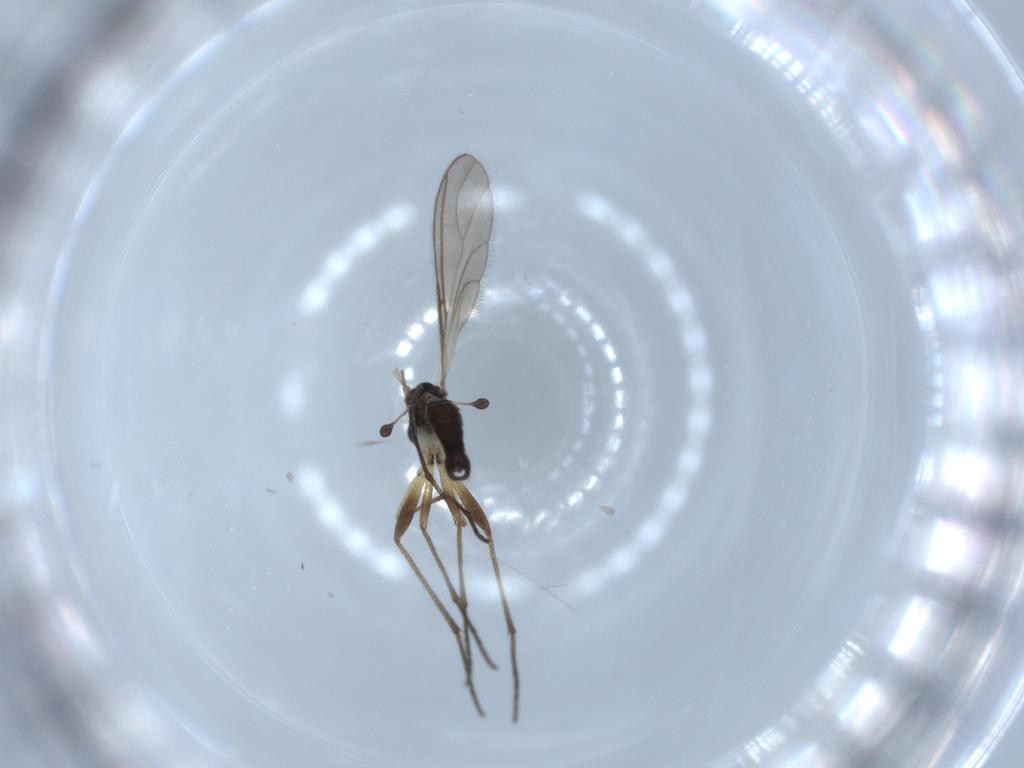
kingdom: Animalia
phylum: Arthropoda
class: Insecta
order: Diptera
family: Sciaridae
